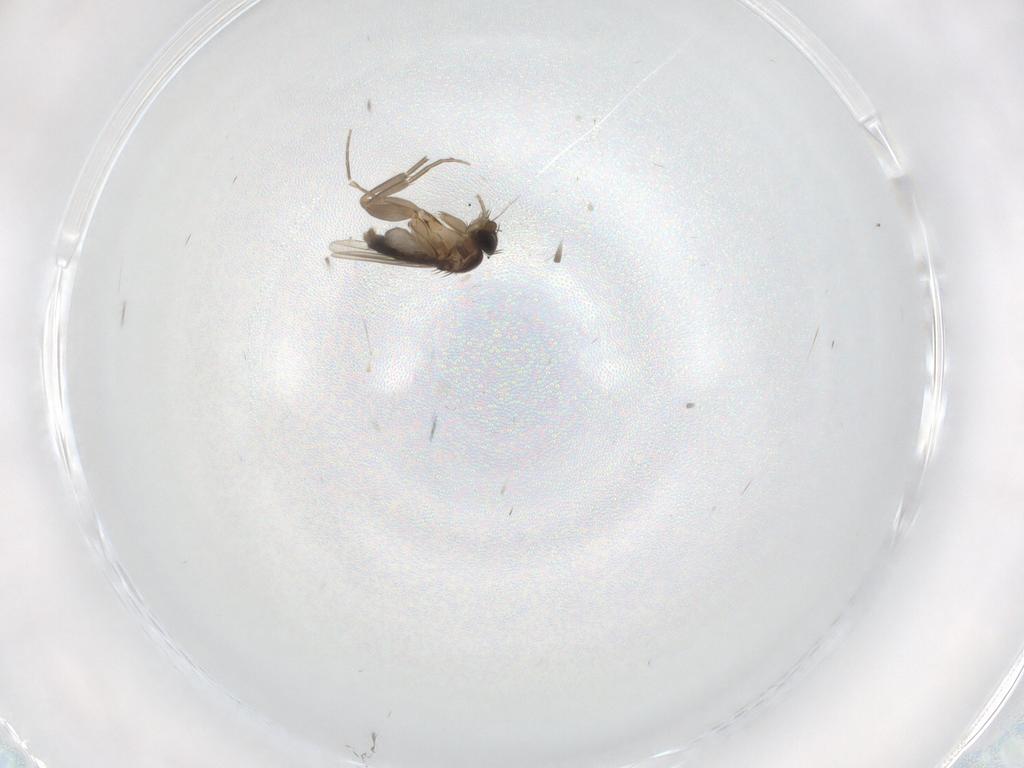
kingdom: Animalia
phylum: Arthropoda
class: Insecta
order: Diptera
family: Phoridae
